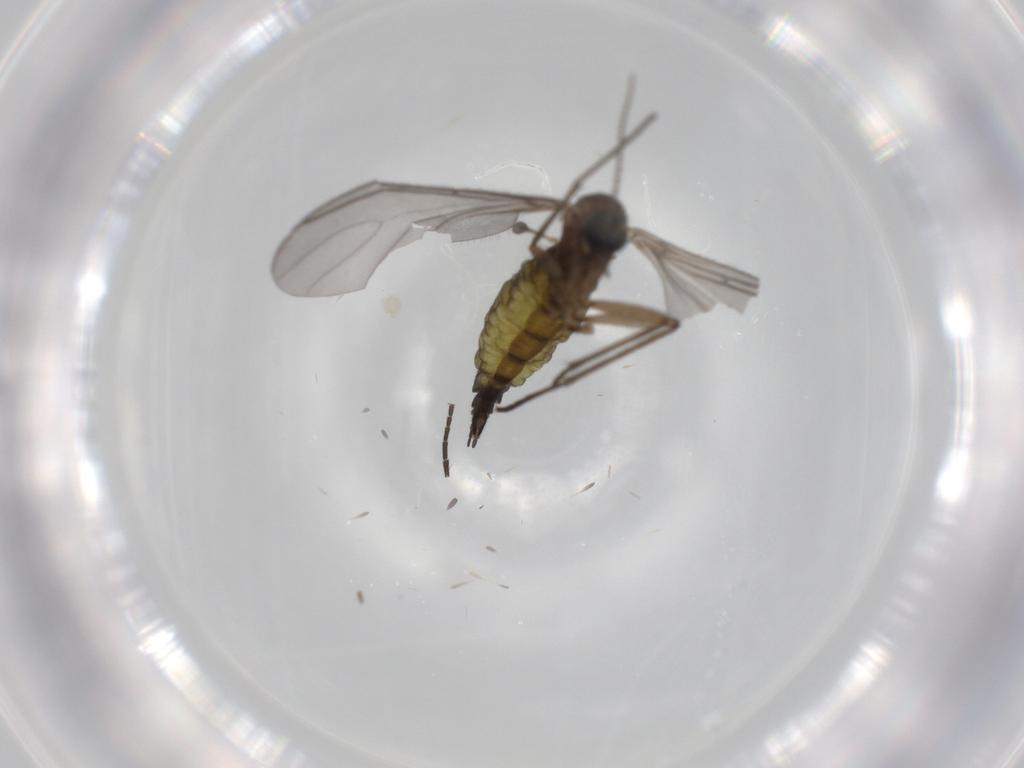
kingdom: Animalia
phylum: Arthropoda
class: Insecta
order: Diptera
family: Sciaridae
